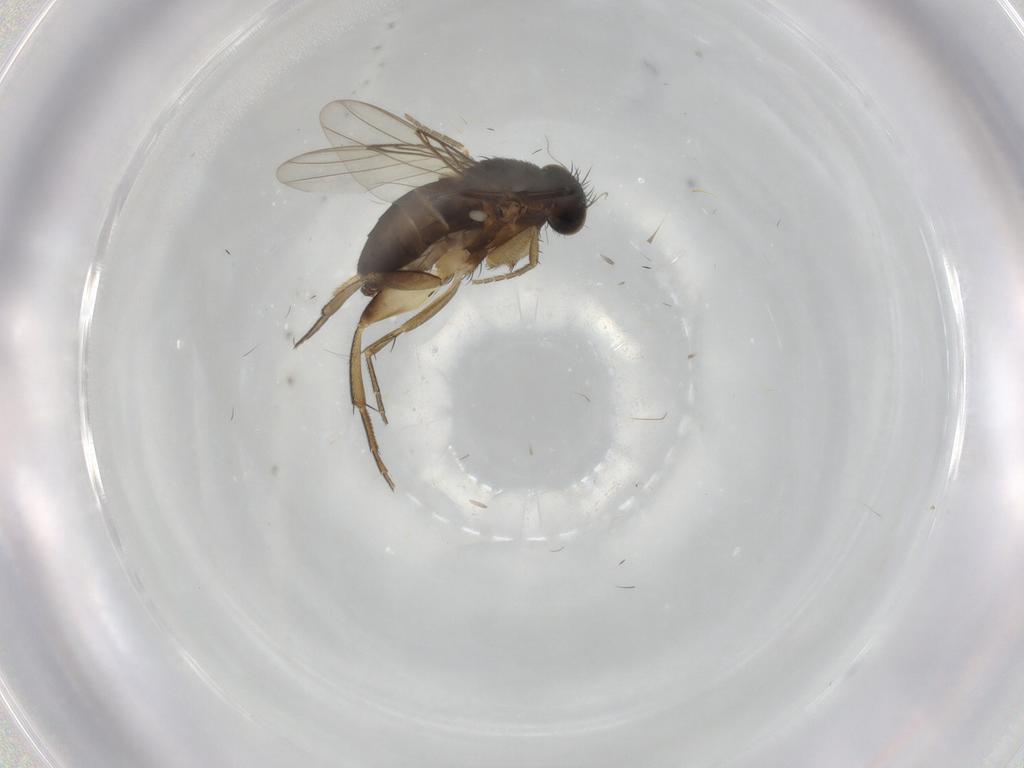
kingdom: Animalia
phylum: Arthropoda
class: Insecta
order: Diptera
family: Phoridae
